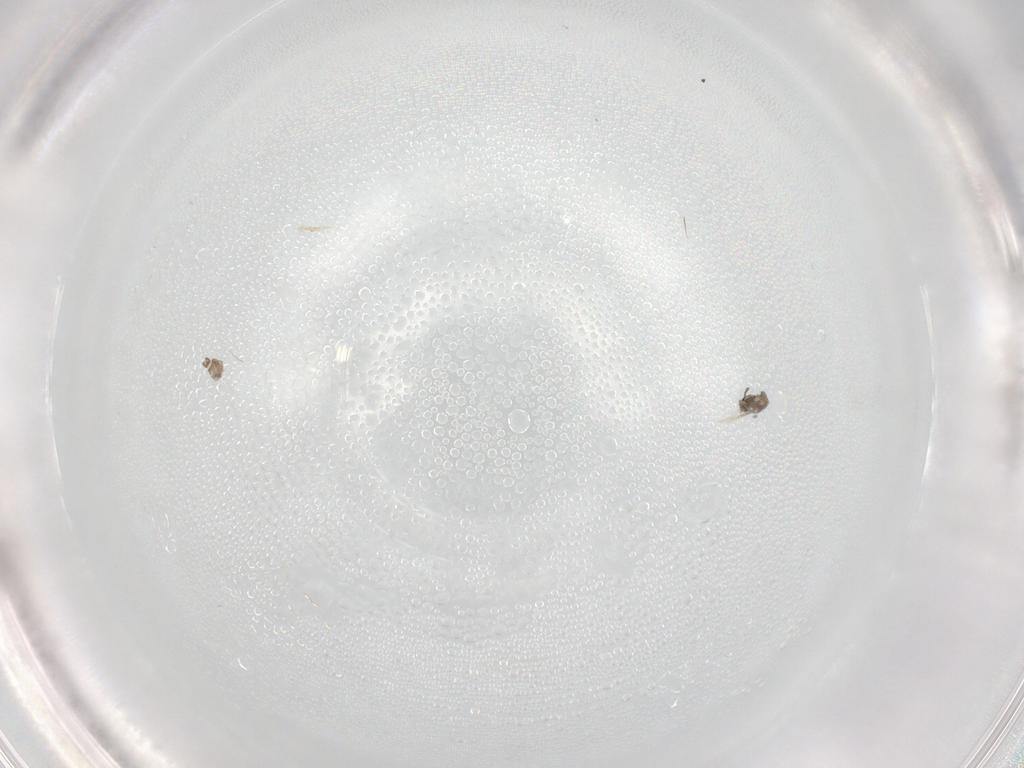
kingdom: Animalia
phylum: Arthropoda
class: Insecta
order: Diptera
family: Cecidomyiidae
